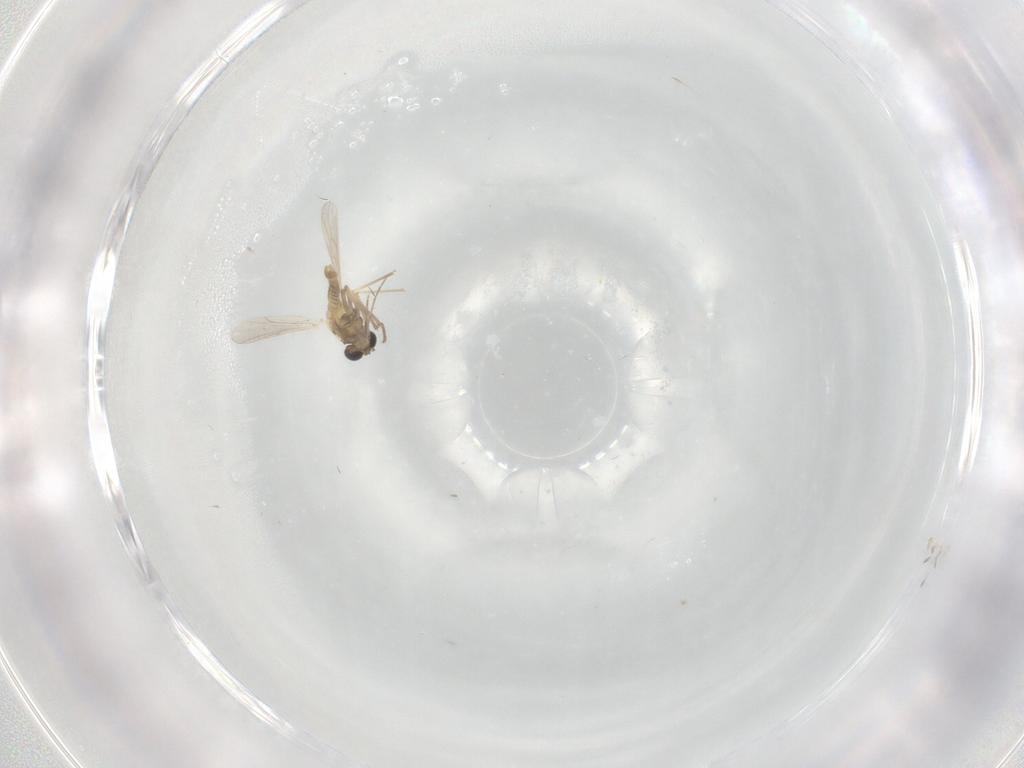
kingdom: Animalia
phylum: Arthropoda
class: Insecta
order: Diptera
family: Chironomidae
